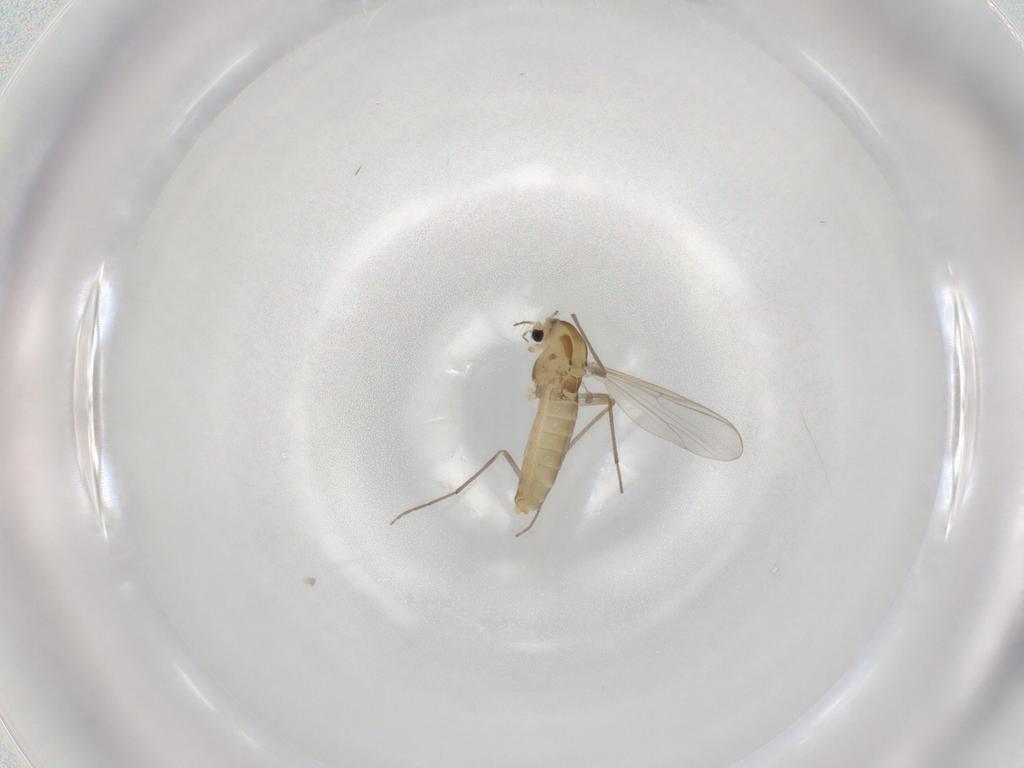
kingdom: Animalia
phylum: Arthropoda
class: Insecta
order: Diptera
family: Chironomidae
